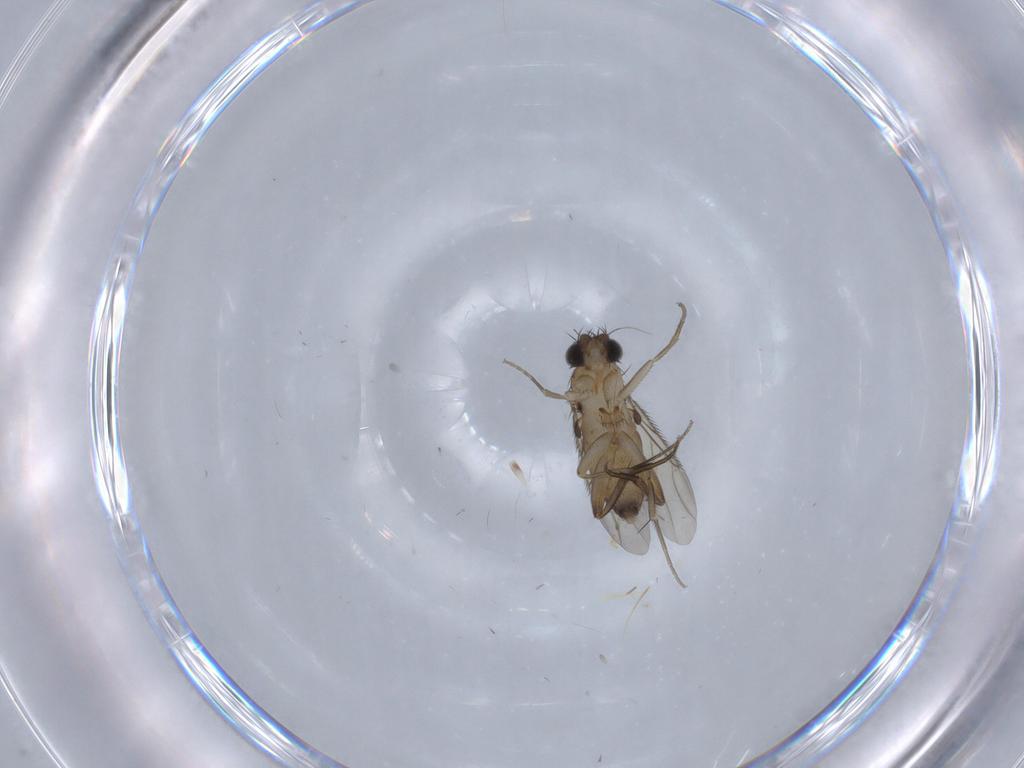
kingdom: Animalia
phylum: Arthropoda
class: Insecta
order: Diptera
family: Phoridae
